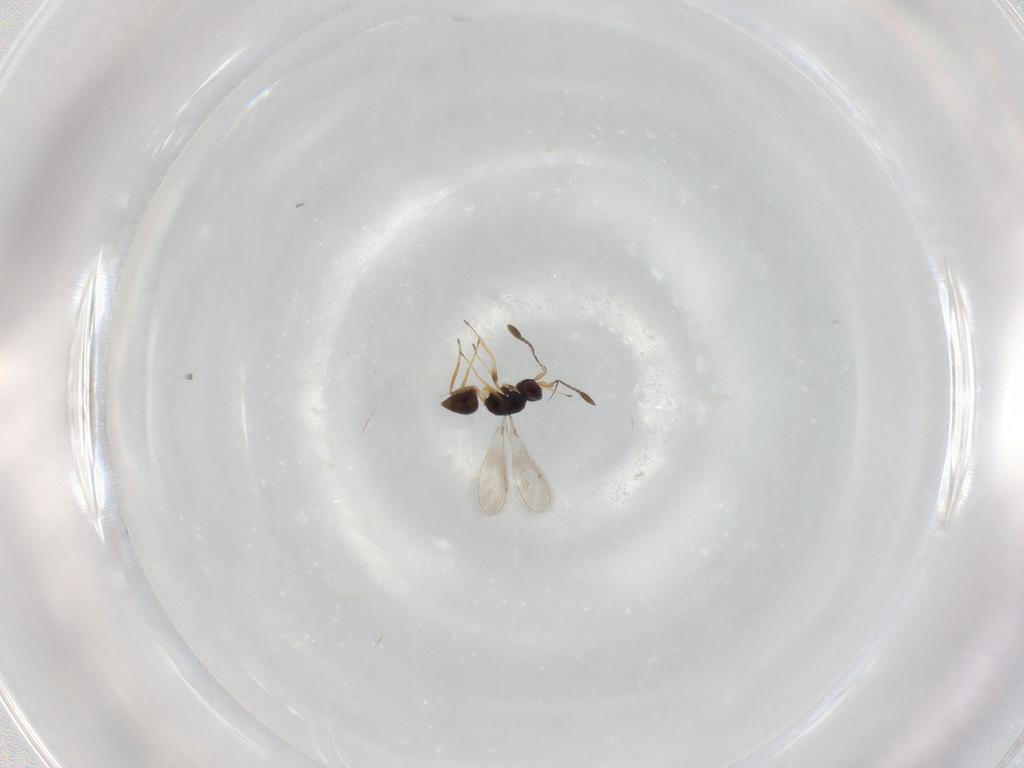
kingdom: Animalia
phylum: Arthropoda
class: Insecta
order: Hymenoptera
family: Mymaridae
